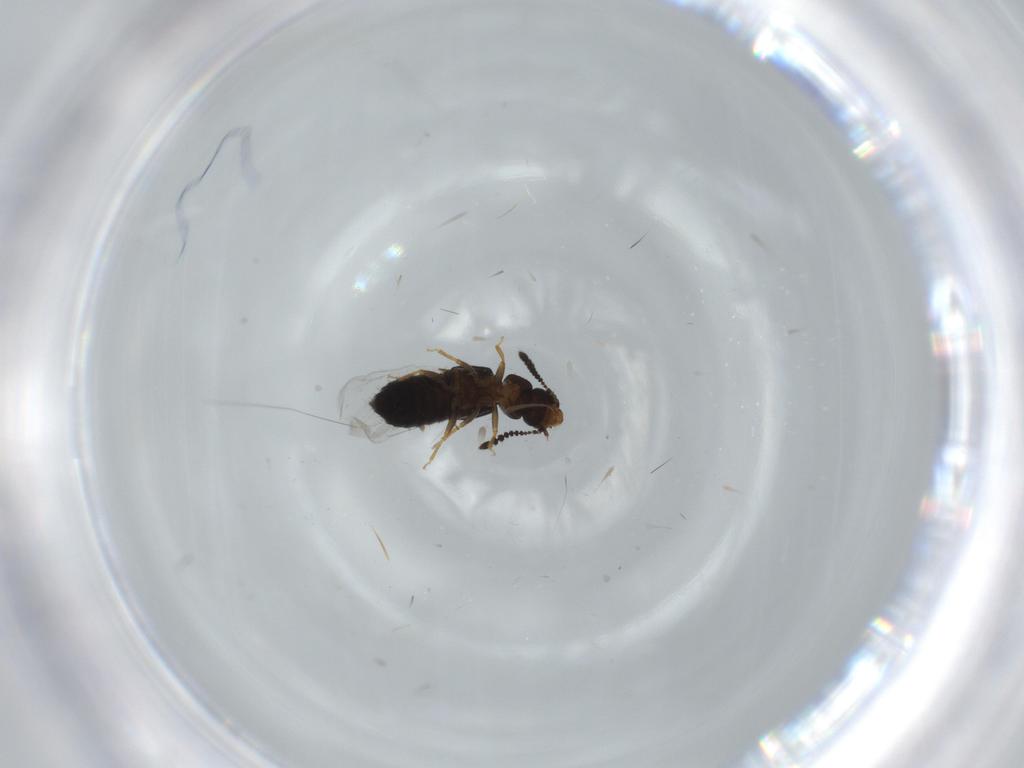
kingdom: Animalia
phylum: Arthropoda
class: Insecta
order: Coleoptera
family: Staphylinidae
